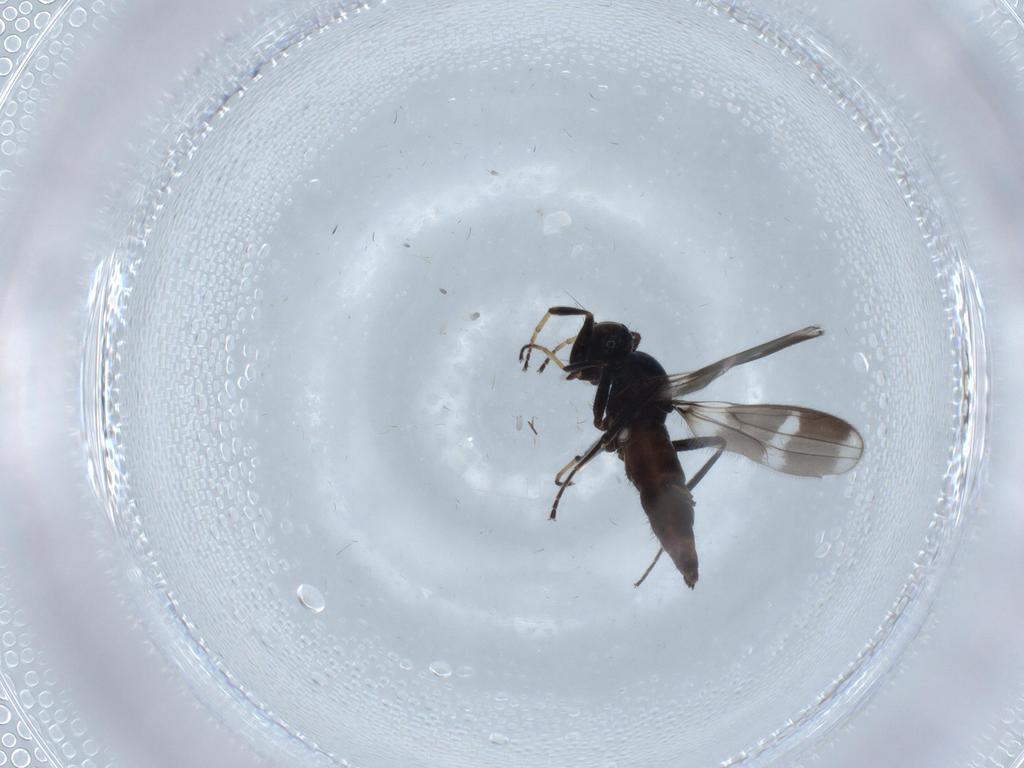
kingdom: Animalia
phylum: Arthropoda
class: Insecta
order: Diptera
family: Hybotidae
